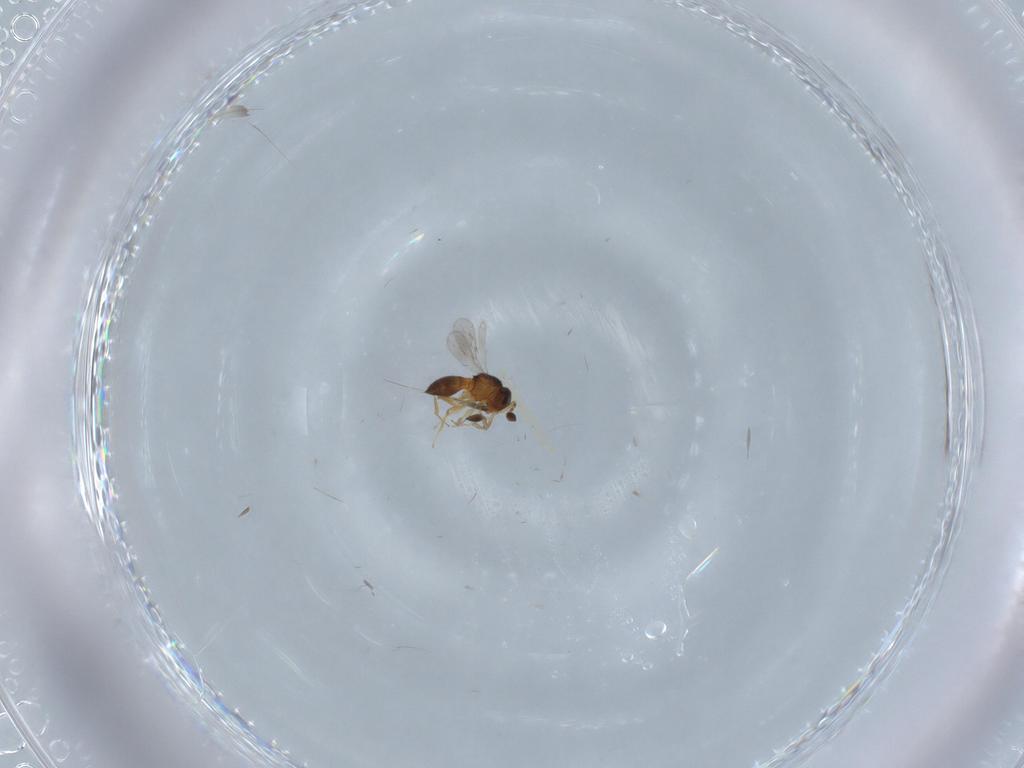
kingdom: Animalia
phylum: Arthropoda
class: Insecta
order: Hymenoptera
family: Scelionidae
